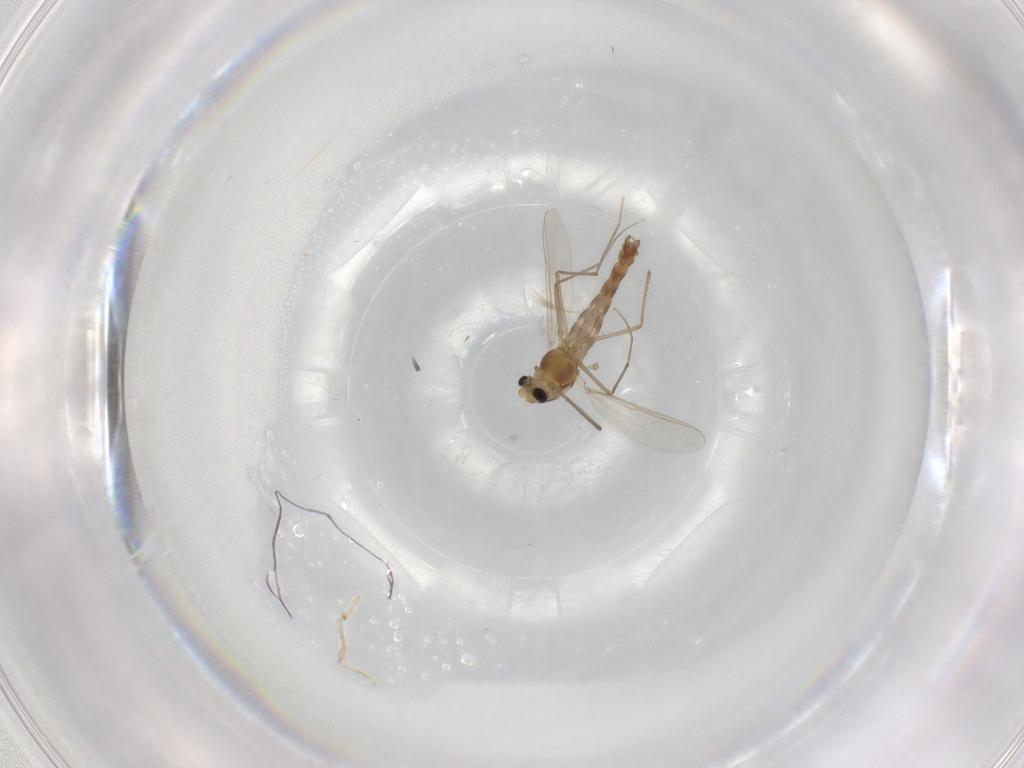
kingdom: Animalia
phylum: Arthropoda
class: Insecta
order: Diptera
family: Chironomidae
